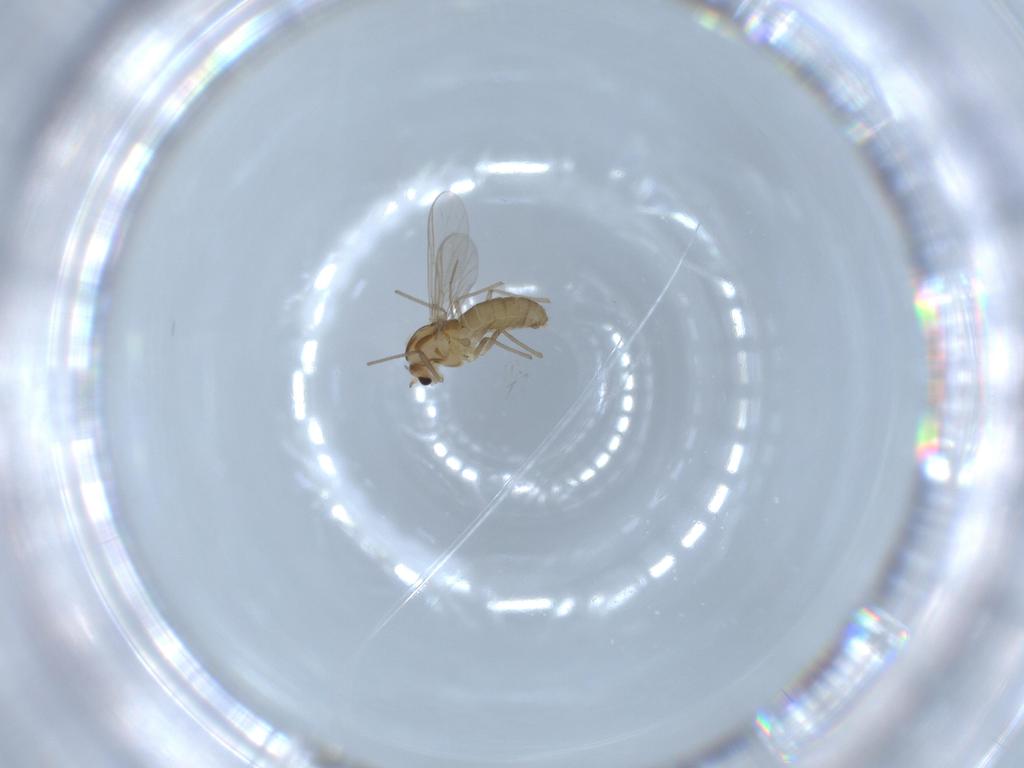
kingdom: Animalia
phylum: Arthropoda
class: Insecta
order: Diptera
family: Chironomidae
